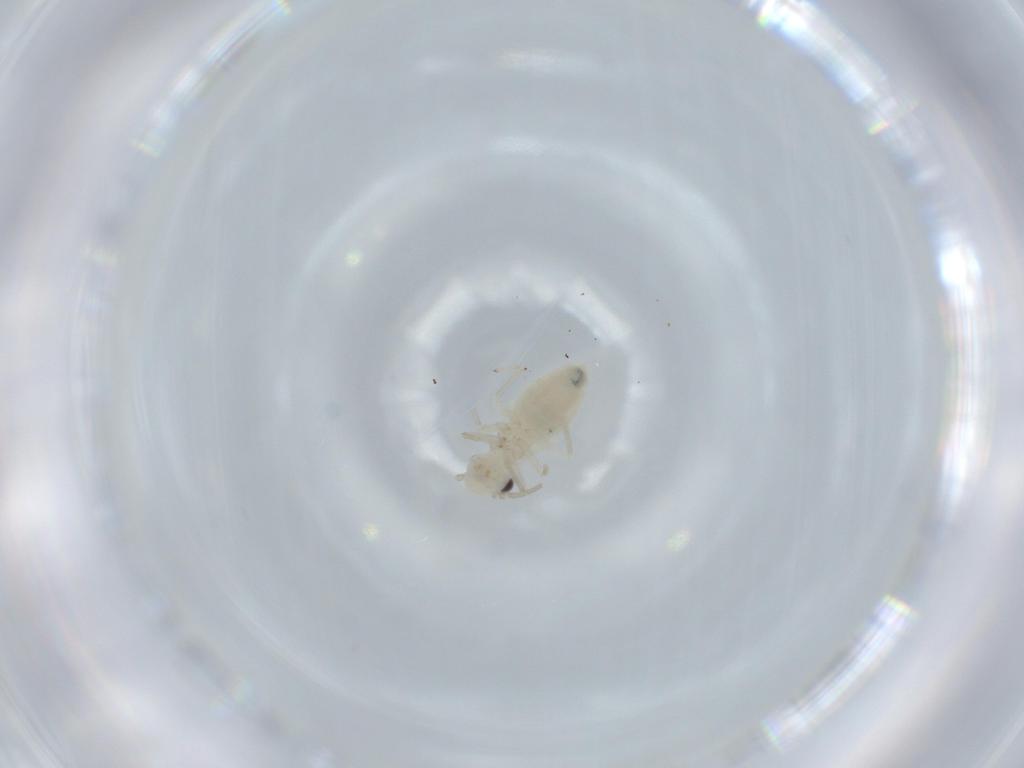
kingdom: Animalia
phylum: Arthropoda
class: Insecta
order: Psocodea
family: Caeciliusidae
